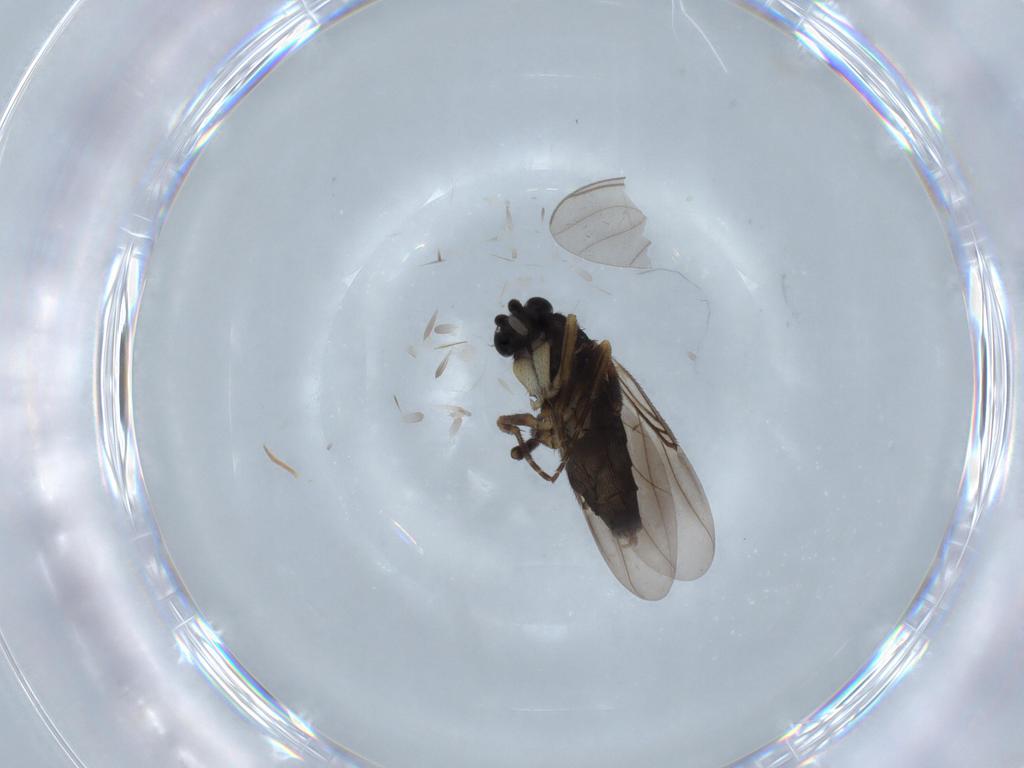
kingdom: Animalia
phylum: Arthropoda
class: Insecta
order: Diptera
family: Phoridae
